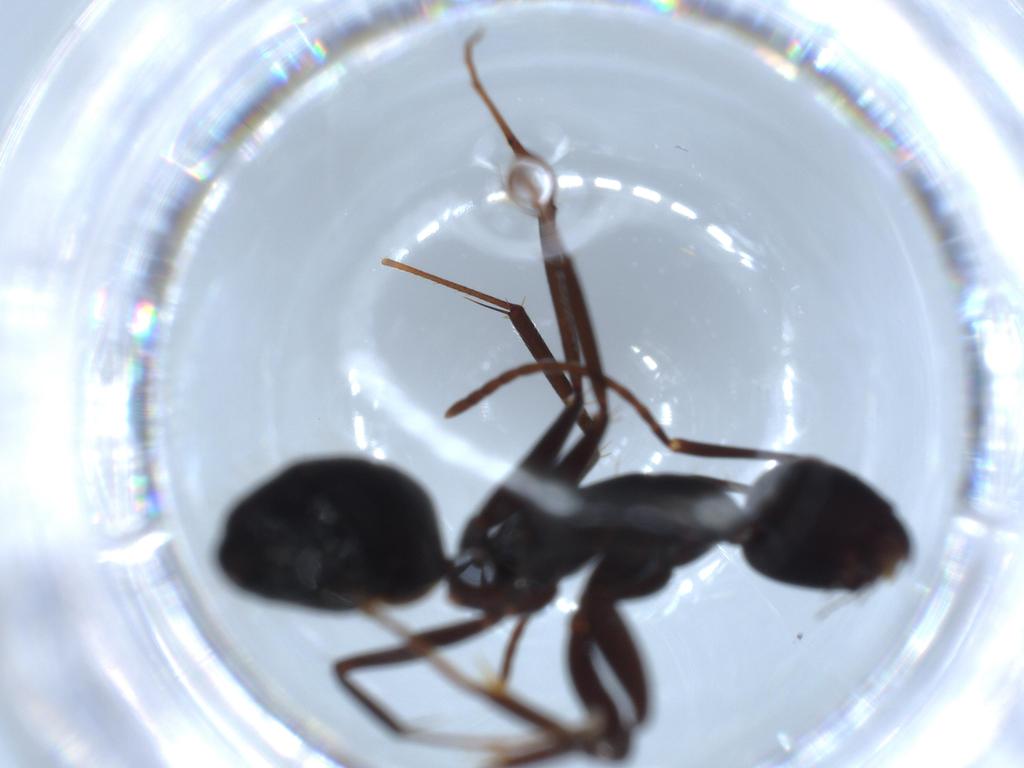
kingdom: Animalia
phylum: Arthropoda
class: Insecta
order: Hymenoptera
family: Formicidae
